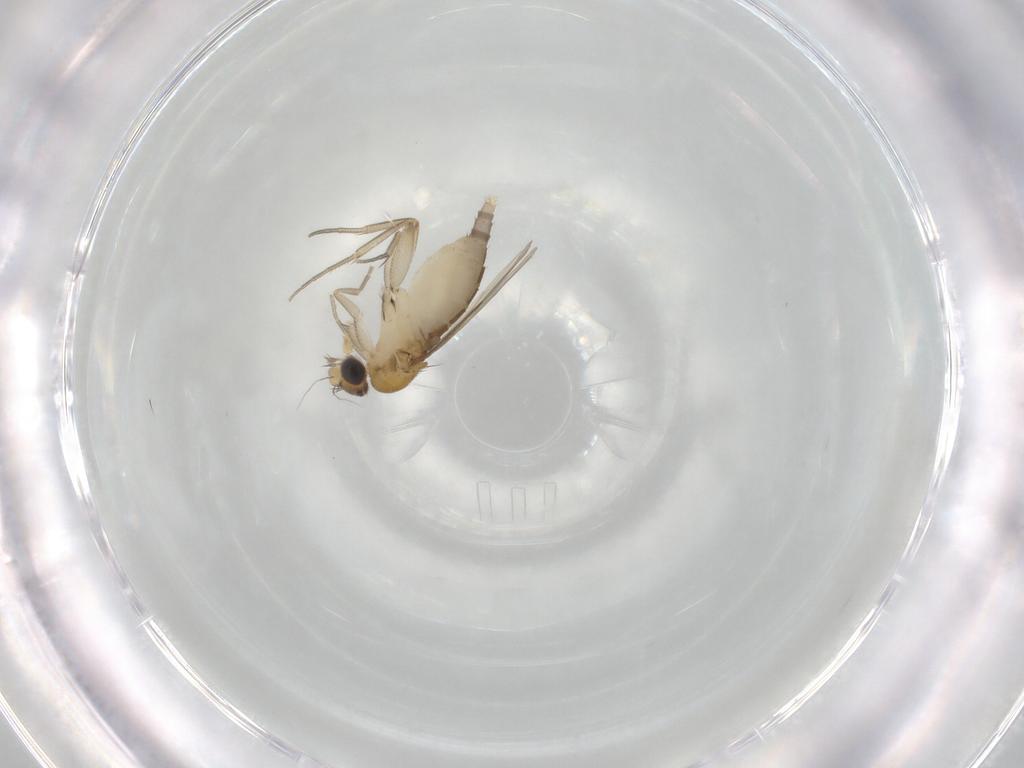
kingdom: Animalia
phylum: Arthropoda
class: Insecta
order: Diptera
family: Phoridae
